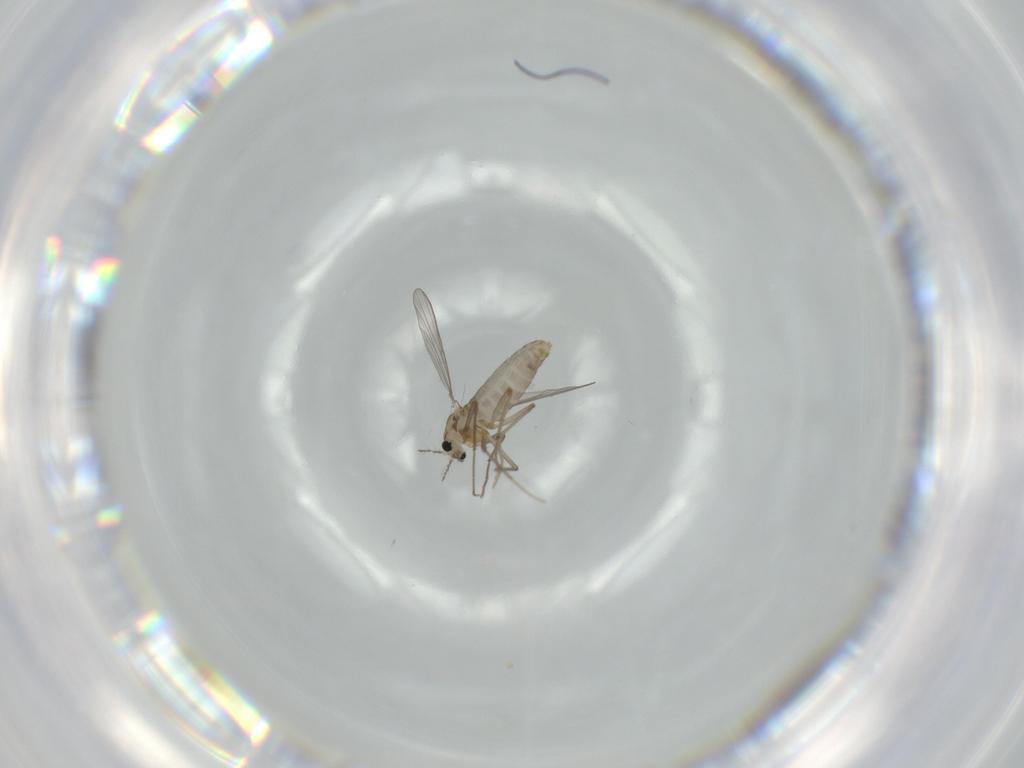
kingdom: Animalia
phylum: Arthropoda
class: Insecta
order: Diptera
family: Chironomidae
